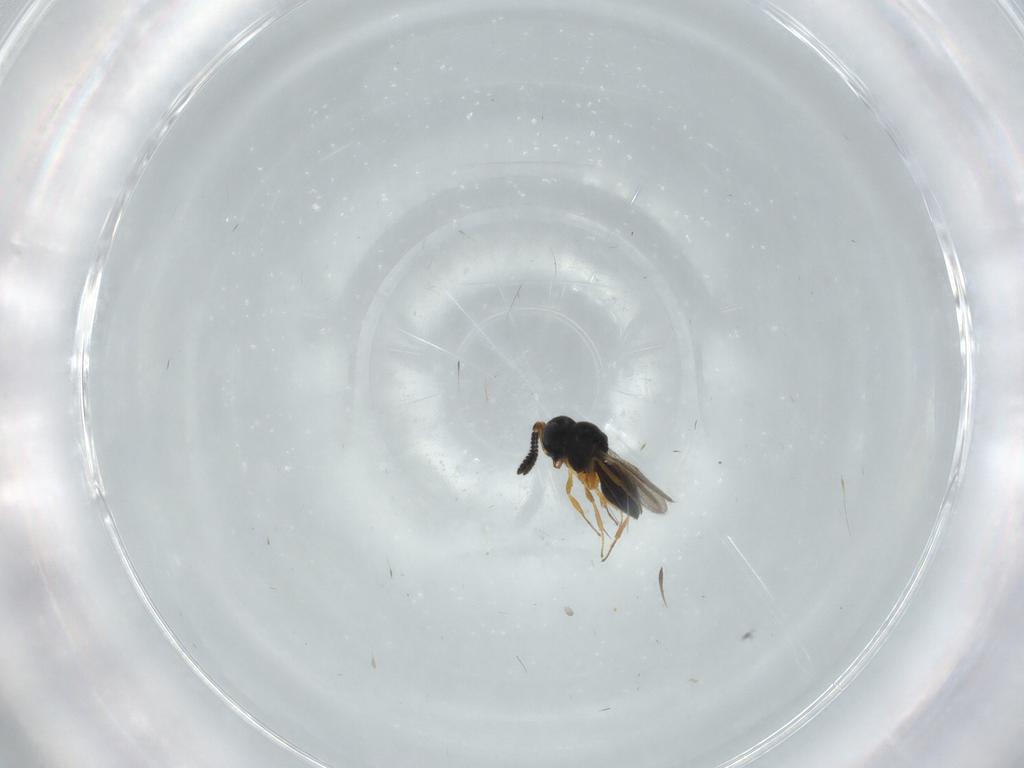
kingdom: Animalia
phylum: Arthropoda
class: Insecta
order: Hymenoptera
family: Scelionidae
